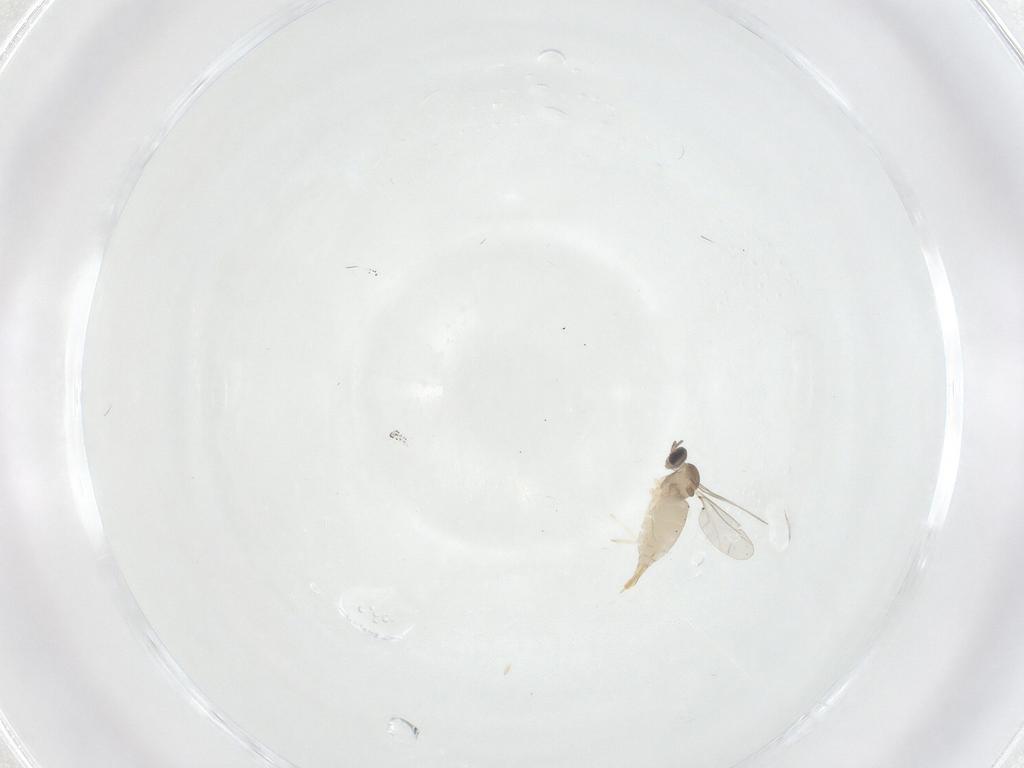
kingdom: Animalia
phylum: Arthropoda
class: Insecta
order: Diptera
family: Cecidomyiidae
